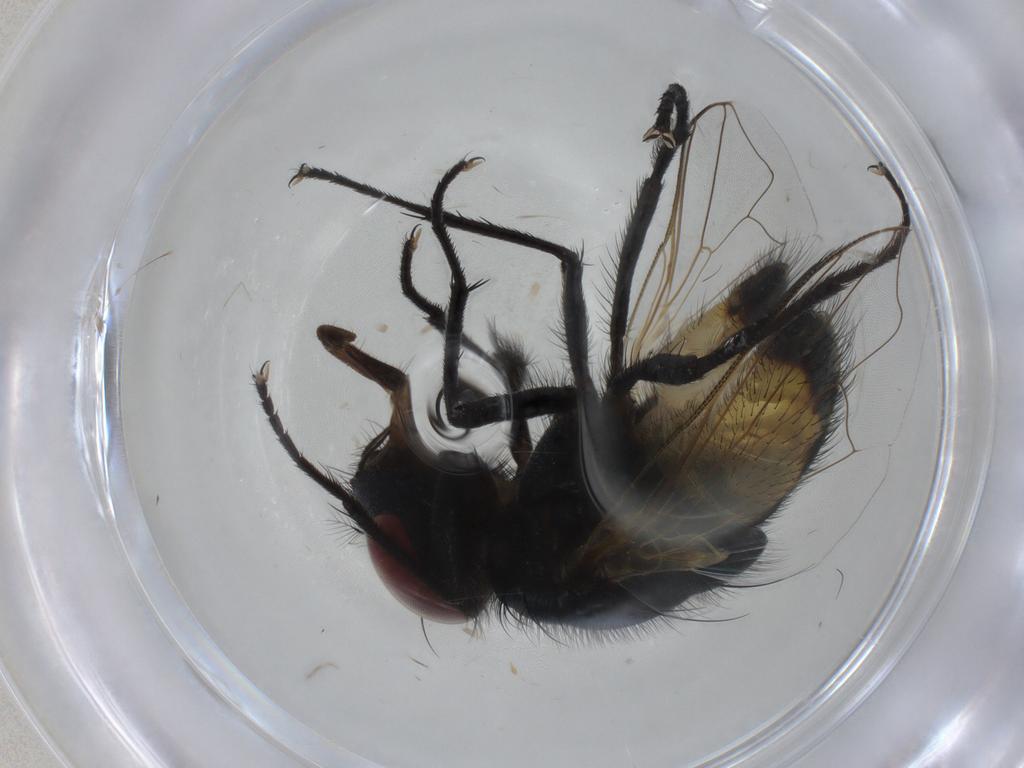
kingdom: Animalia
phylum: Arthropoda
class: Insecta
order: Diptera
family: Muscidae
